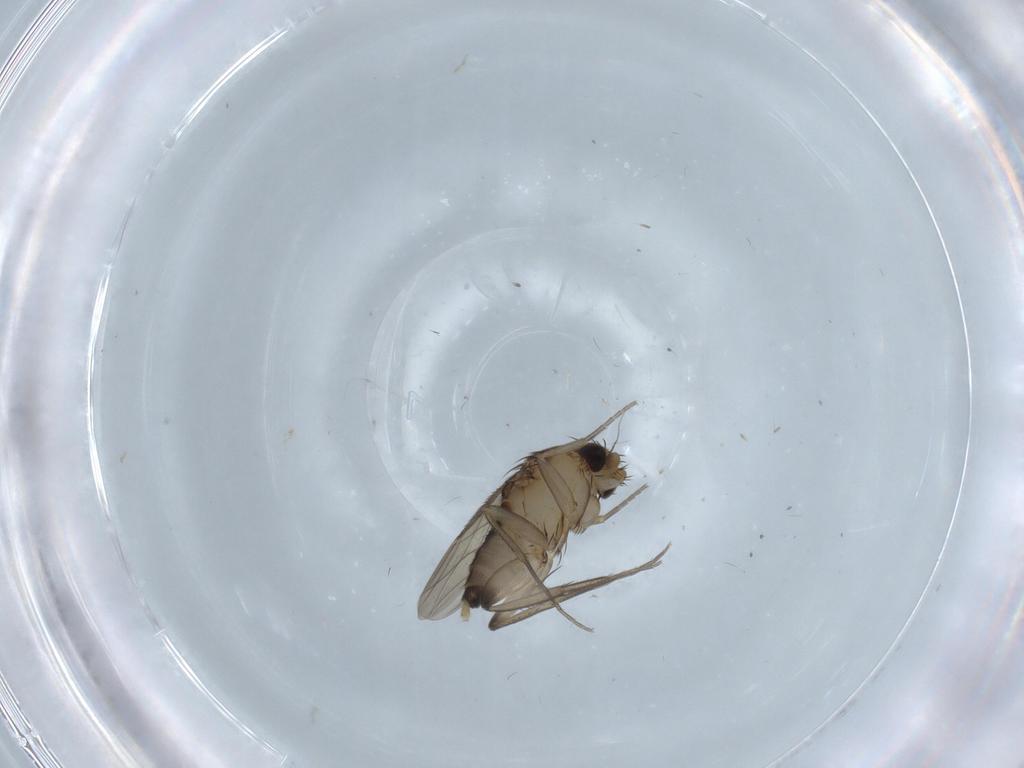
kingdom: Animalia
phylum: Arthropoda
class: Insecta
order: Diptera
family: Phoridae
